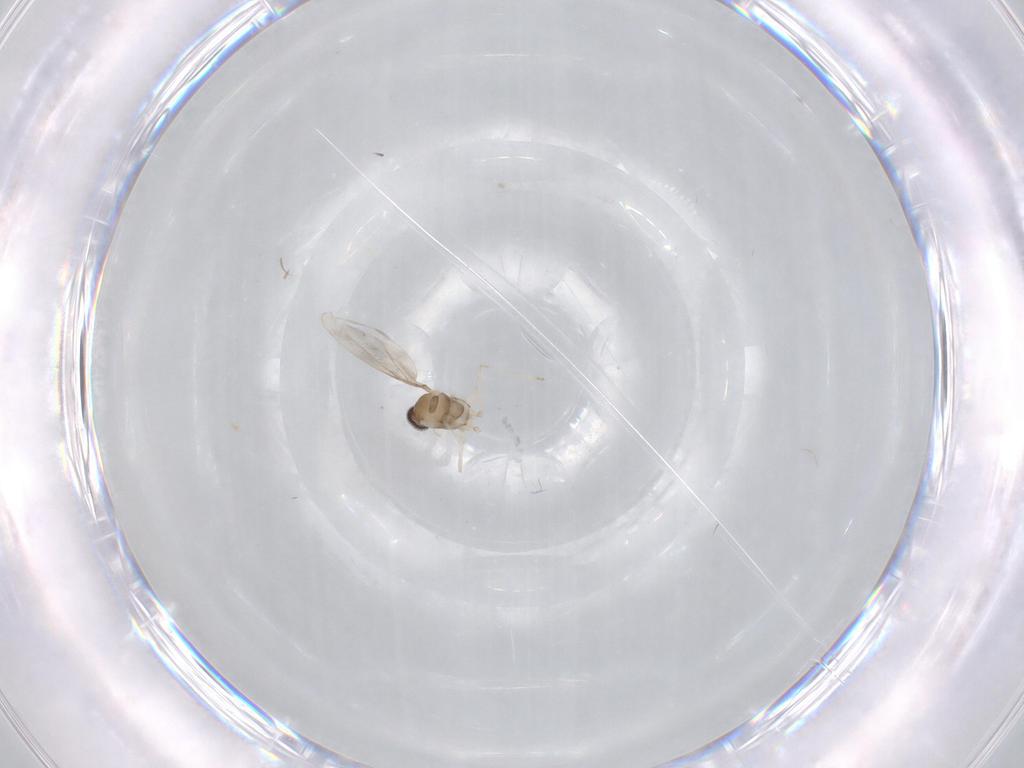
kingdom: Animalia
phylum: Arthropoda
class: Insecta
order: Diptera
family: Cecidomyiidae
